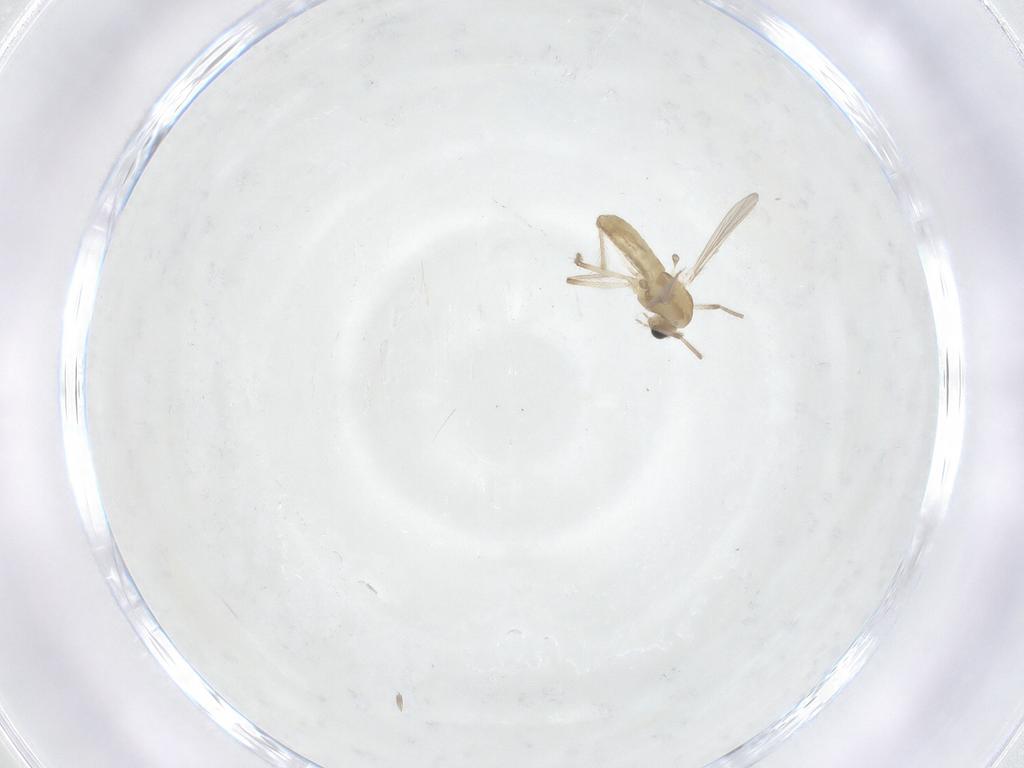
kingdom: Animalia
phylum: Arthropoda
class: Insecta
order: Diptera
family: Chironomidae
